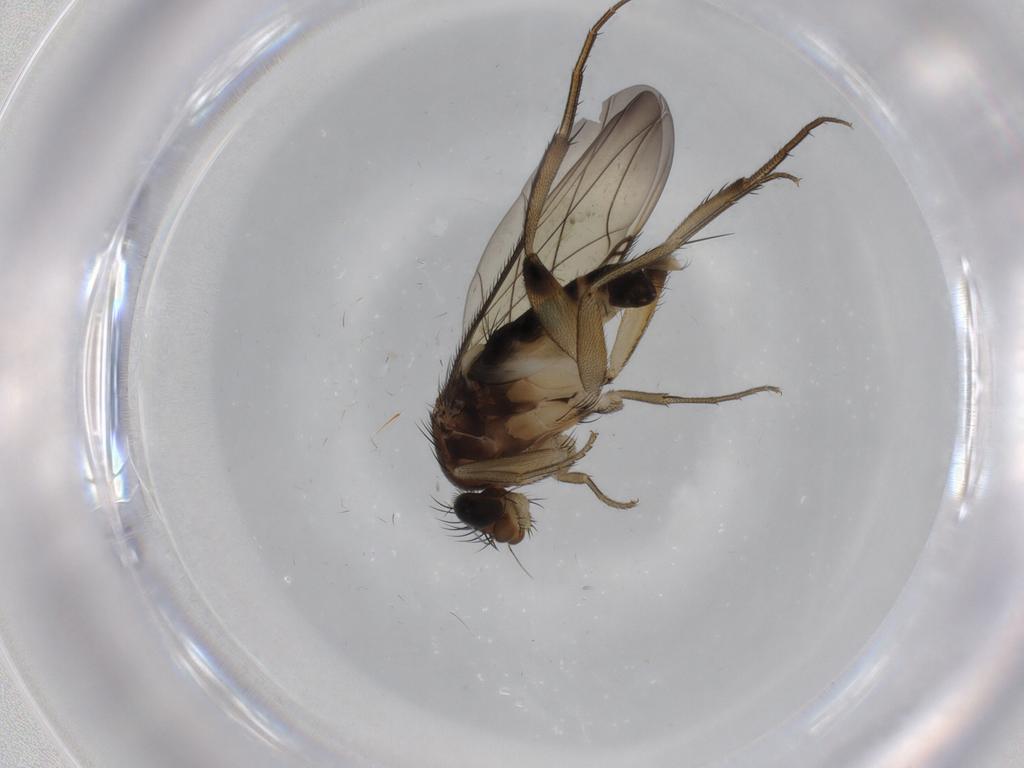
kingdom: Animalia
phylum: Arthropoda
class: Insecta
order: Diptera
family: Phoridae
